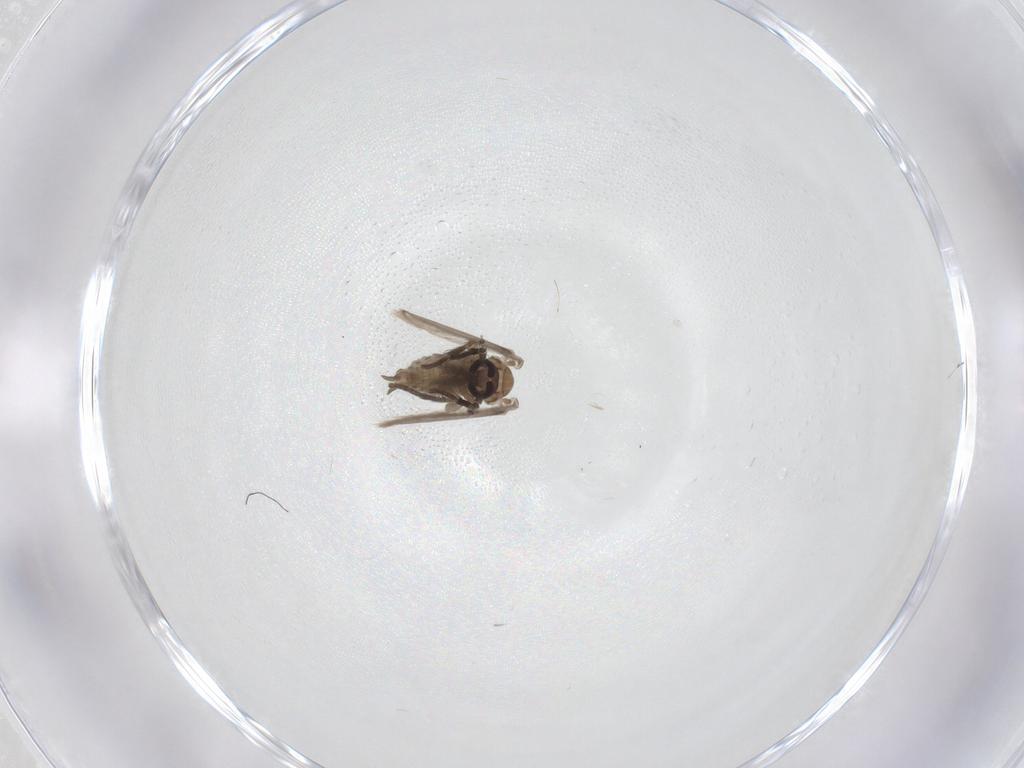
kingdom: Animalia
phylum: Arthropoda
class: Insecta
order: Diptera
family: Psychodidae
